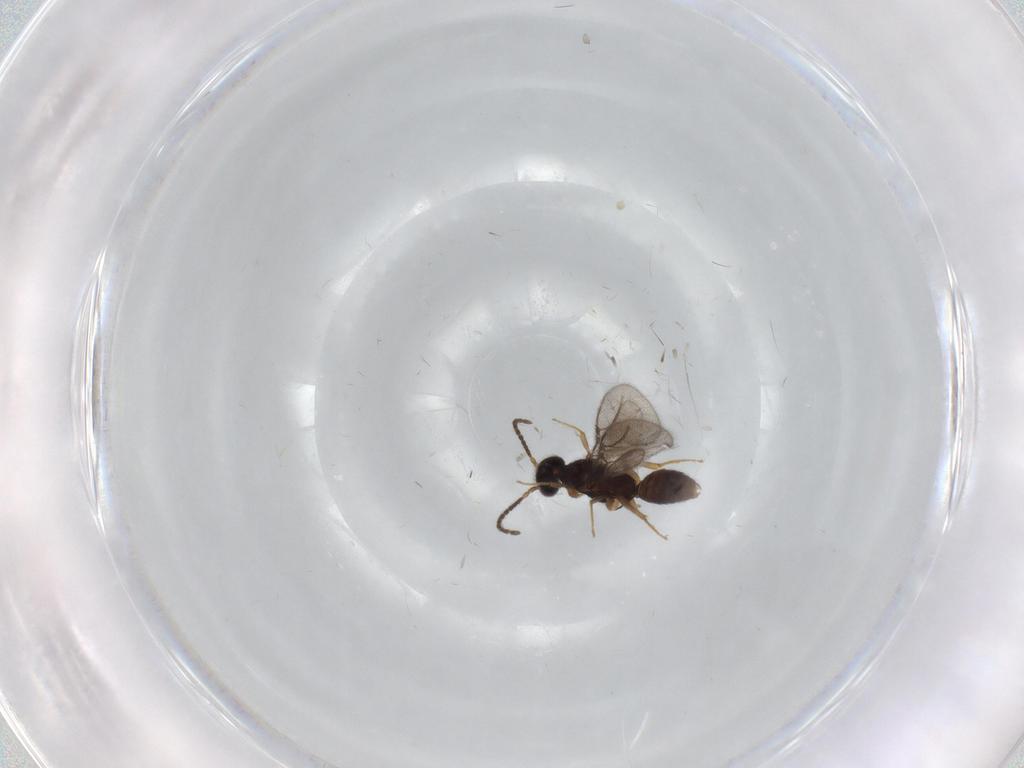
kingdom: Animalia
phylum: Arthropoda
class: Insecta
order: Hymenoptera
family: Bethylidae
